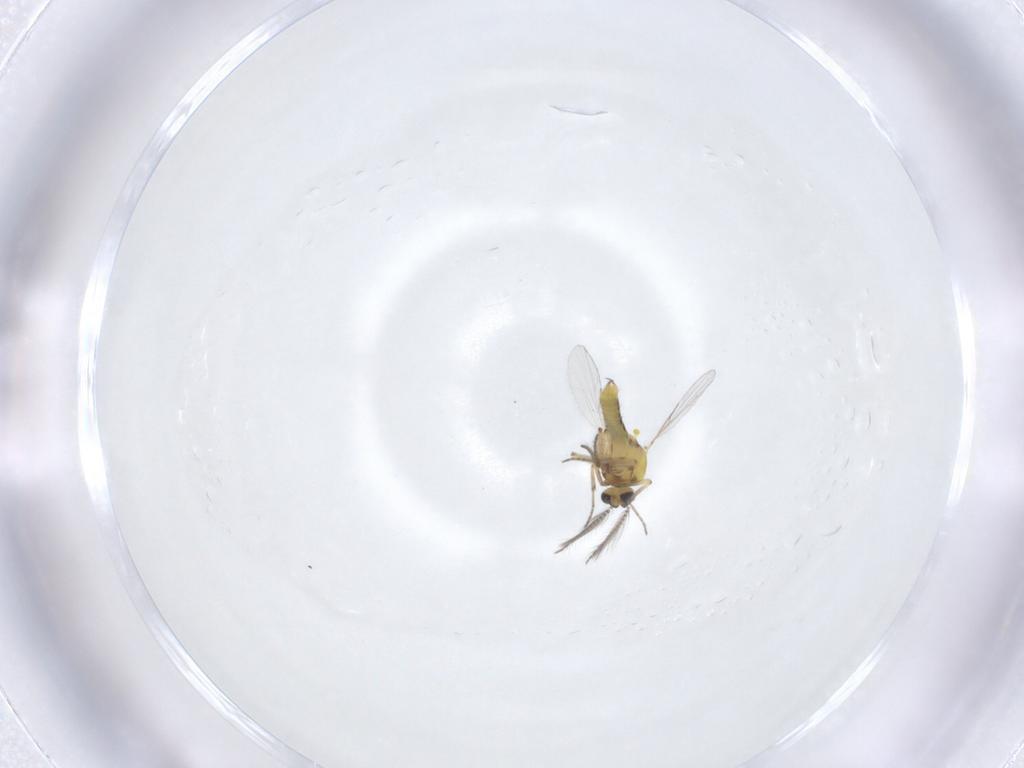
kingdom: Animalia
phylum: Arthropoda
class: Insecta
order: Diptera
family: Ceratopogonidae
